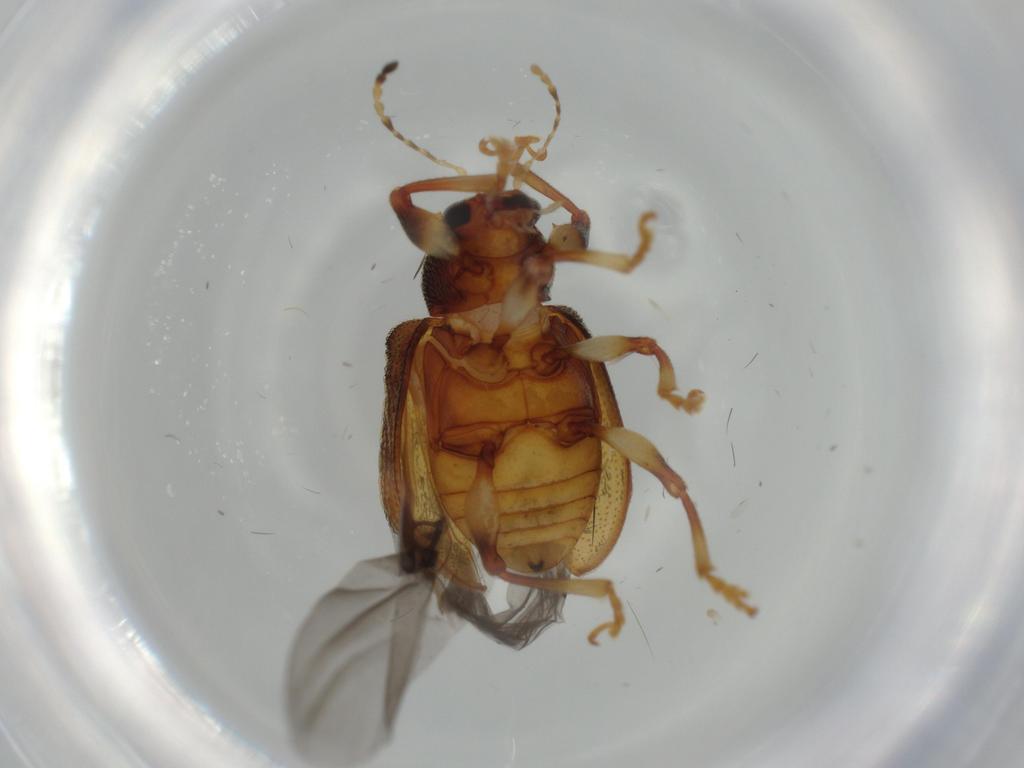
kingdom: Animalia
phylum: Arthropoda
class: Insecta
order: Coleoptera
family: Chrysomelidae
